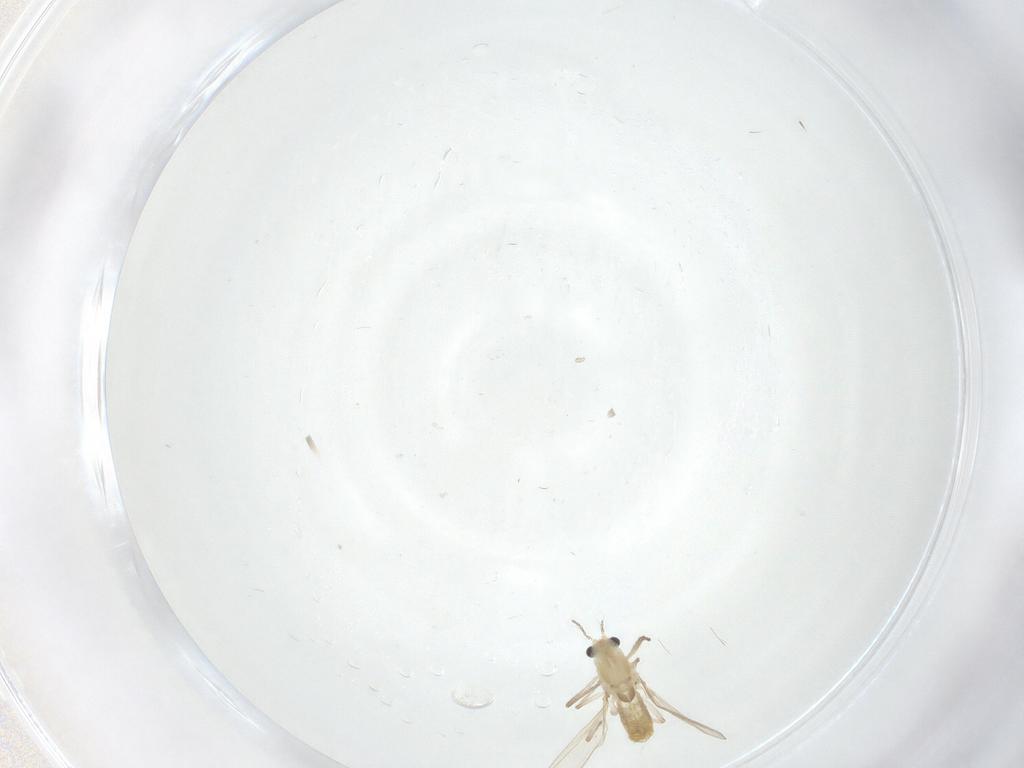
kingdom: Animalia
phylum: Arthropoda
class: Insecta
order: Diptera
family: Chironomidae
